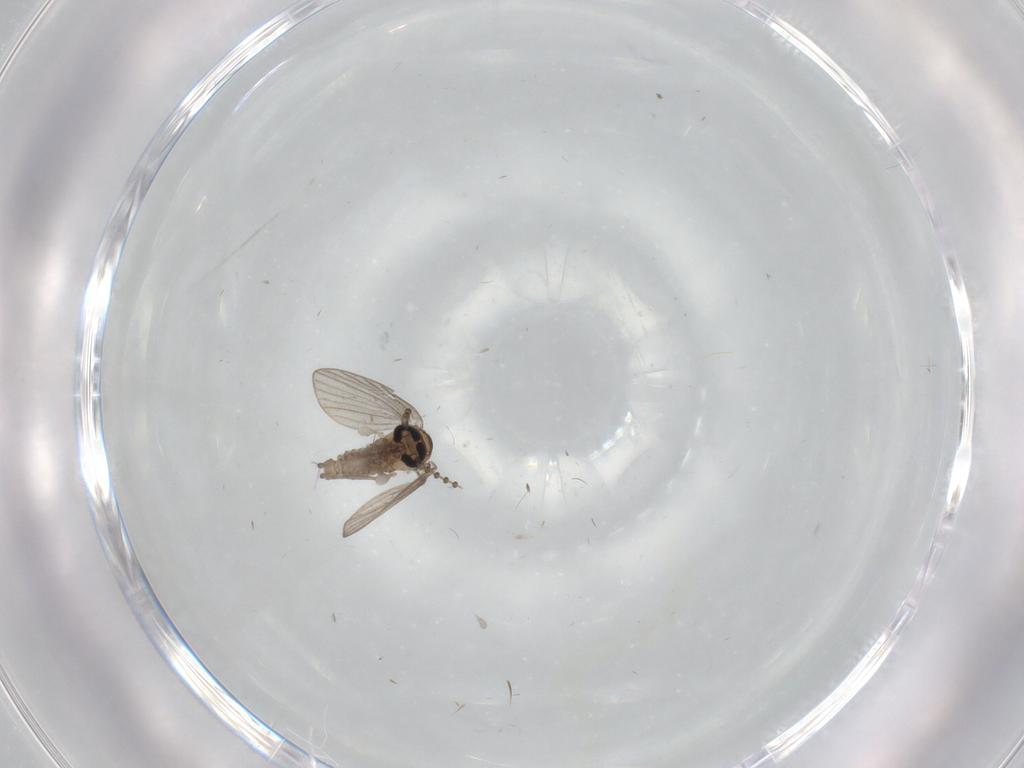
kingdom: Animalia
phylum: Arthropoda
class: Insecta
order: Diptera
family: Psychodidae
